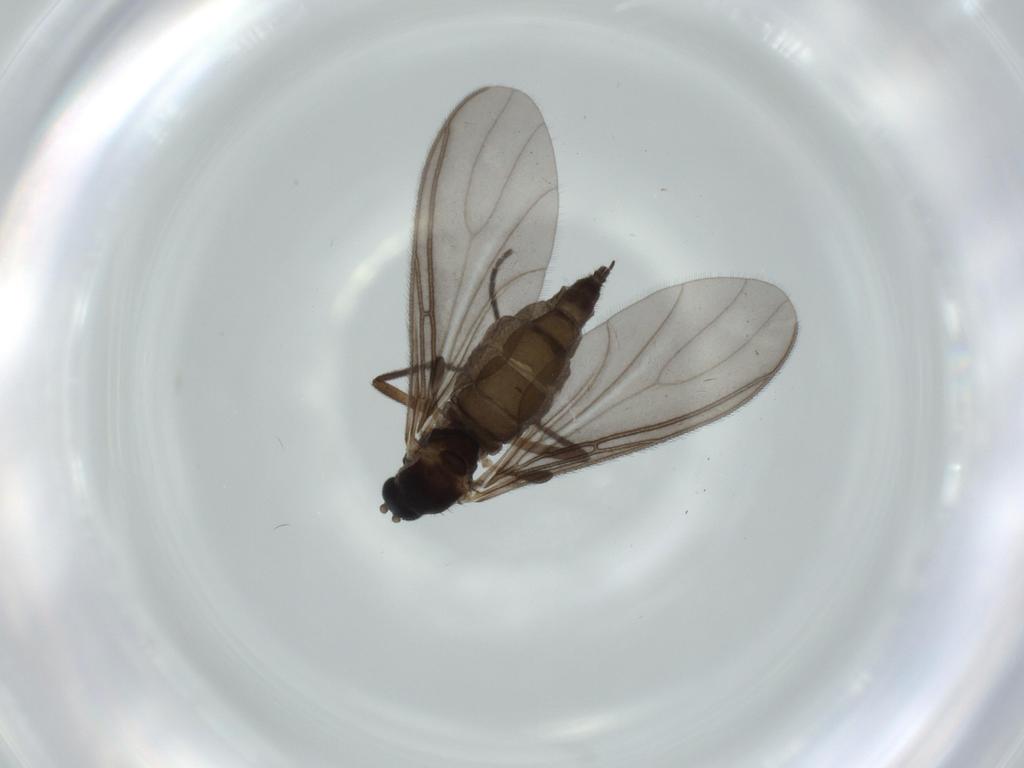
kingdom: Animalia
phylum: Arthropoda
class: Insecta
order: Diptera
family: Sciaridae
